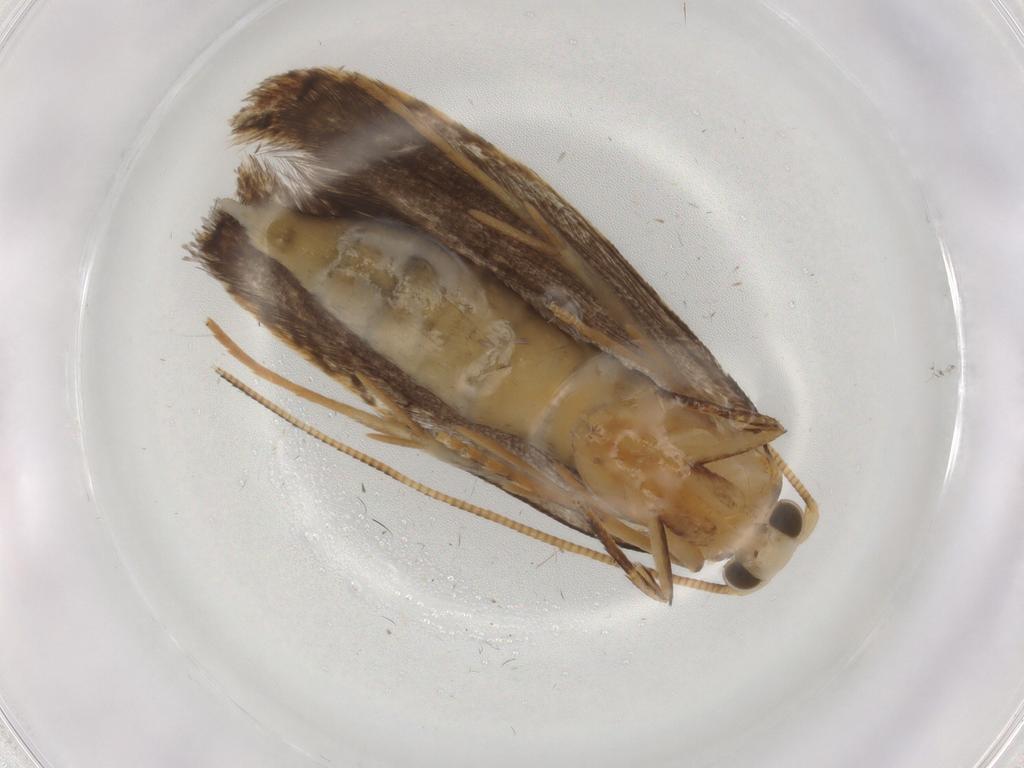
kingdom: Animalia
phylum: Arthropoda
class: Insecta
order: Lepidoptera
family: Nepticulidae
